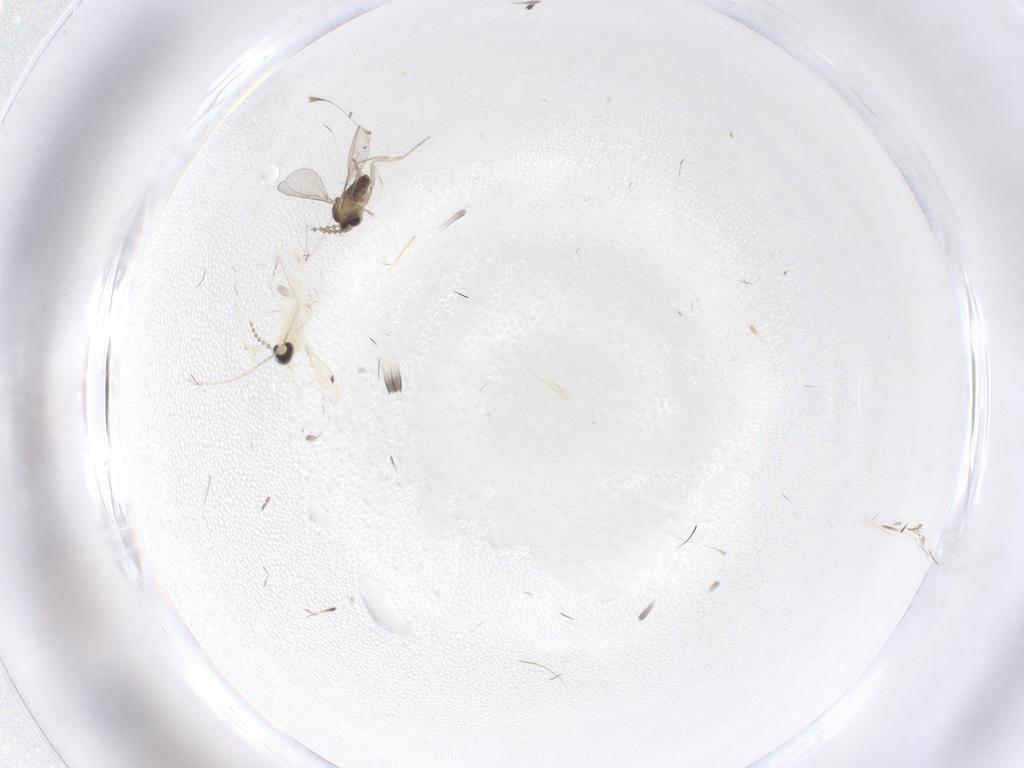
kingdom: Animalia
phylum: Arthropoda
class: Insecta
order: Diptera
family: Cecidomyiidae
